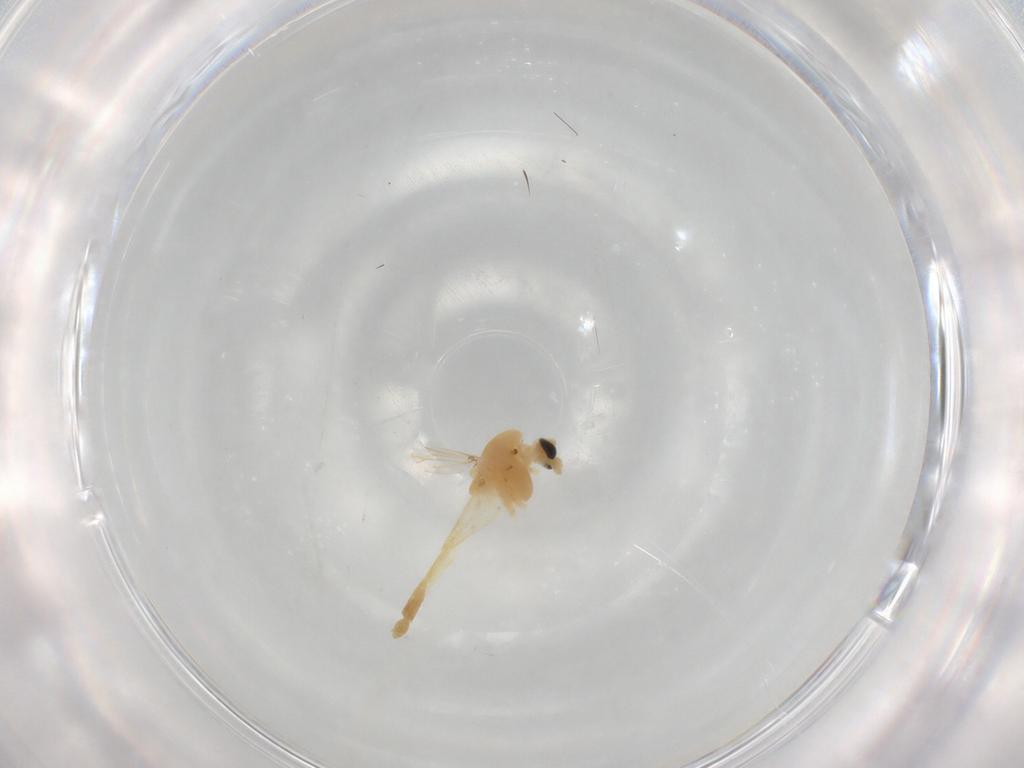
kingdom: Animalia
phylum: Arthropoda
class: Insecta
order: Diptera
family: Chironomidae
